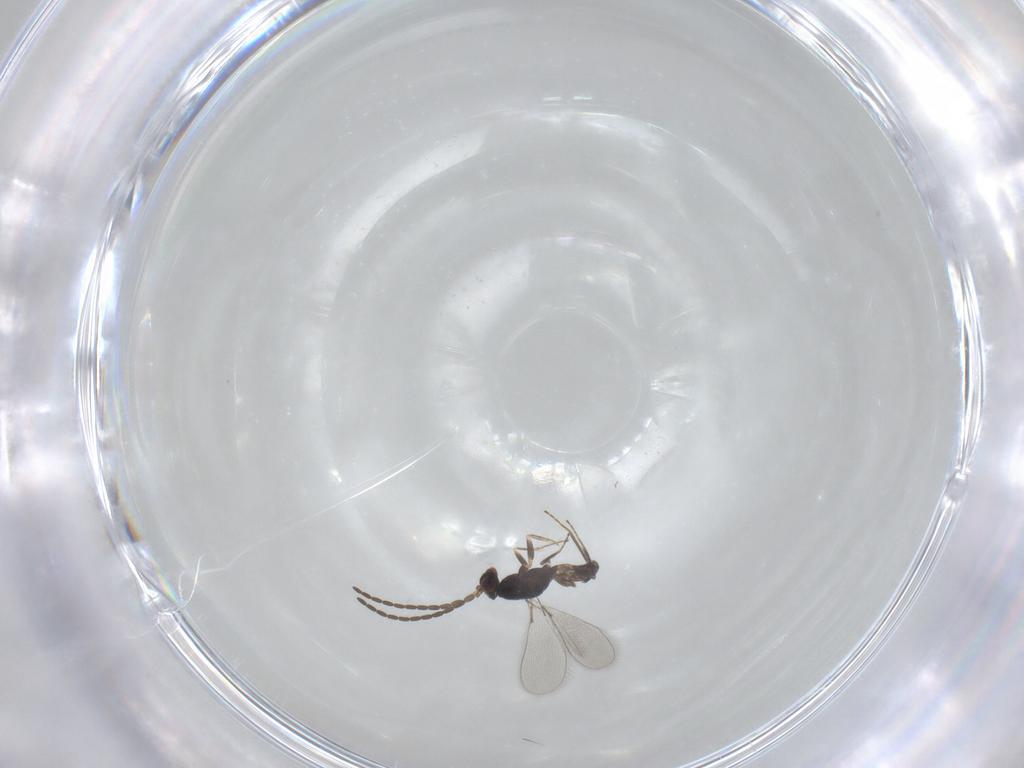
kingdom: Animalia
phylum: Arthropoda
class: Insecta
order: Hymenoptera
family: Mymaridae
